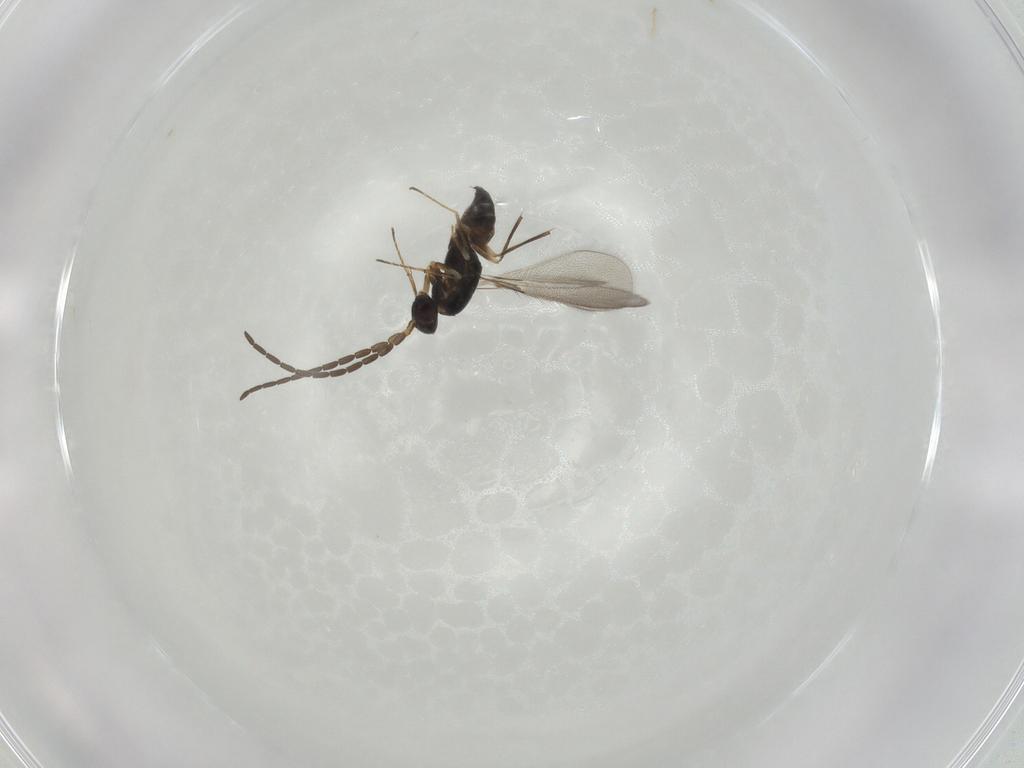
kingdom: Animalia
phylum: Arthropoda
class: Insecta
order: Hymenoptera
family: Mymaridae
